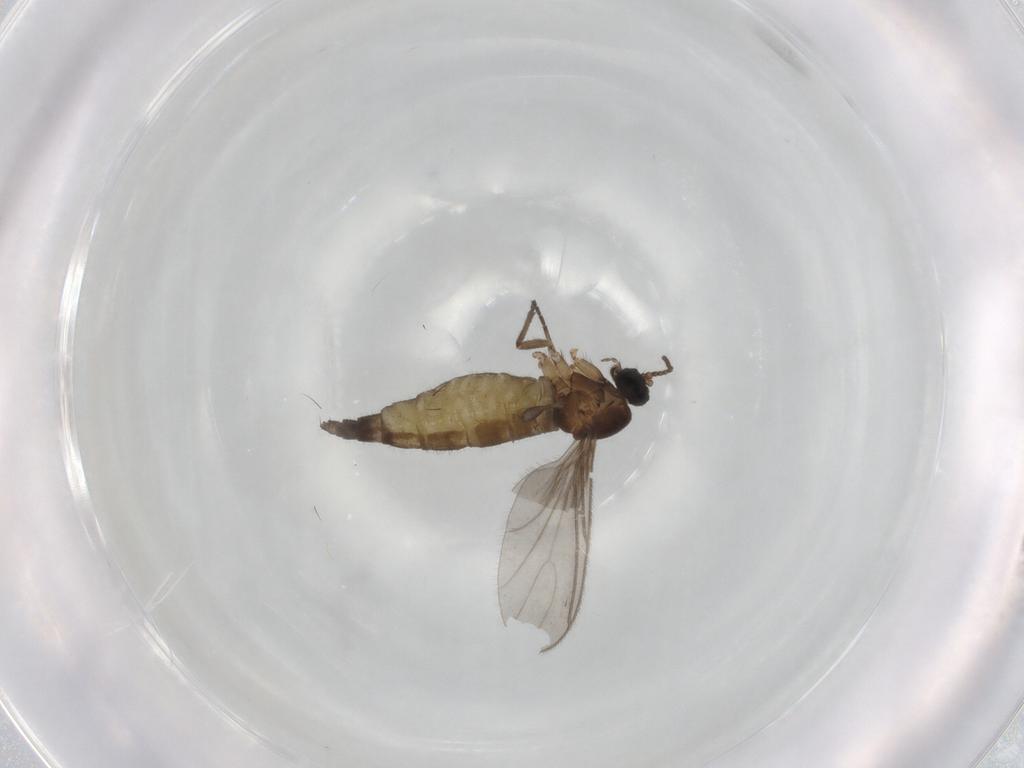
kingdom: Animalia
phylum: Arthropoda
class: Insecta
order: Diptera
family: Sciaridae
